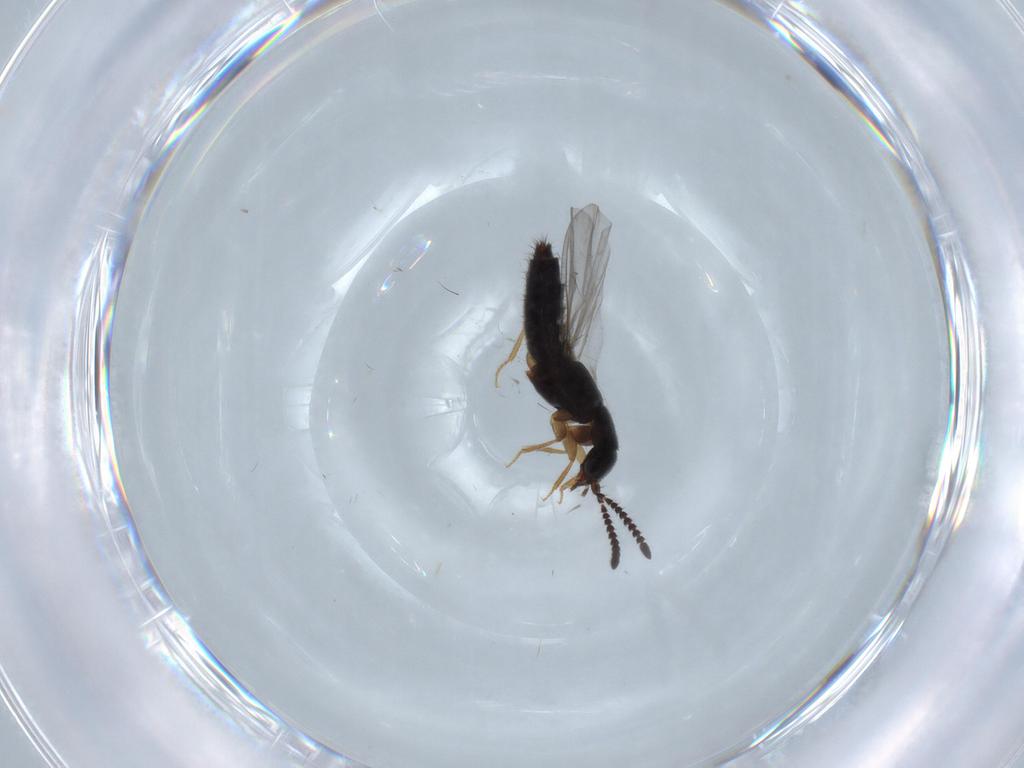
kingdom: Animalia
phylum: Arthropoda
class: Insecta
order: Coleoptera
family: Staphylinidae
